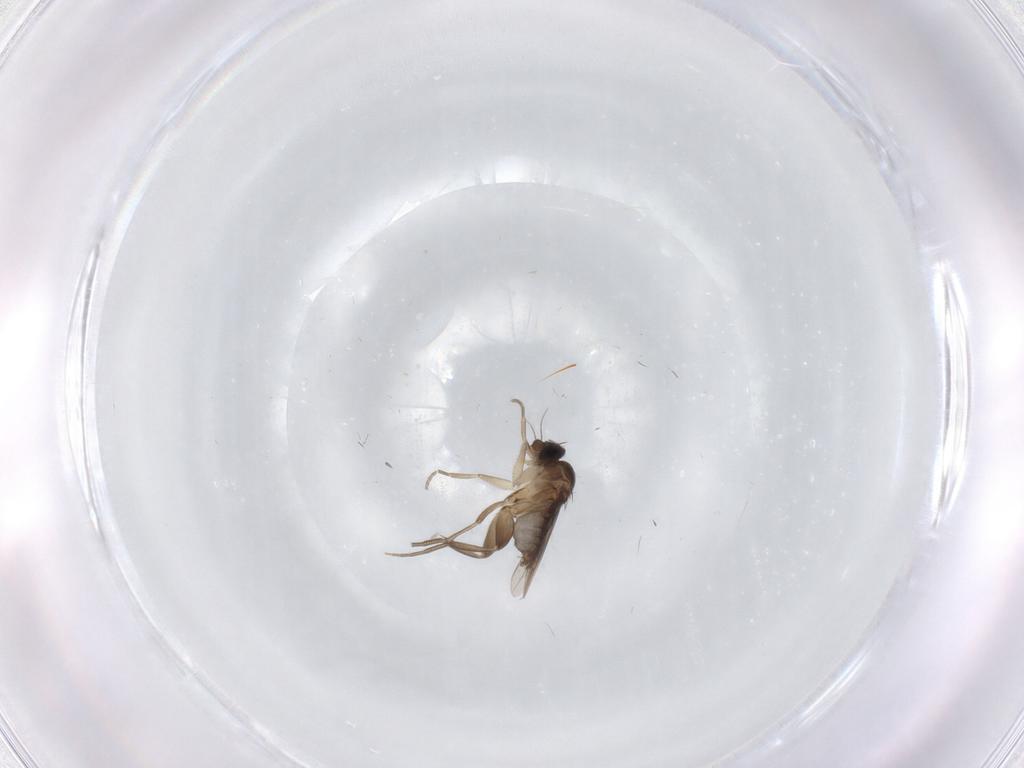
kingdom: Animalia
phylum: Arthropoda
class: Insecta
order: Diptera
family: Phoridae
